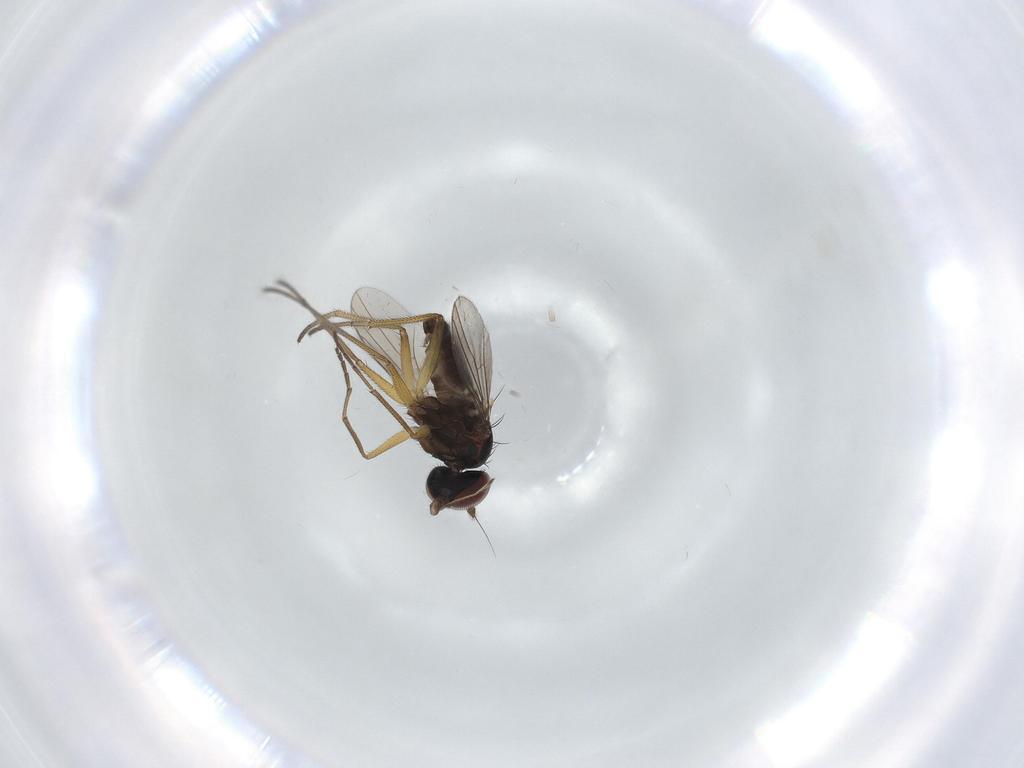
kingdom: Animalia
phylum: Arthropoda
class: Insecta
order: Diptera
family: Dolichopodidae
